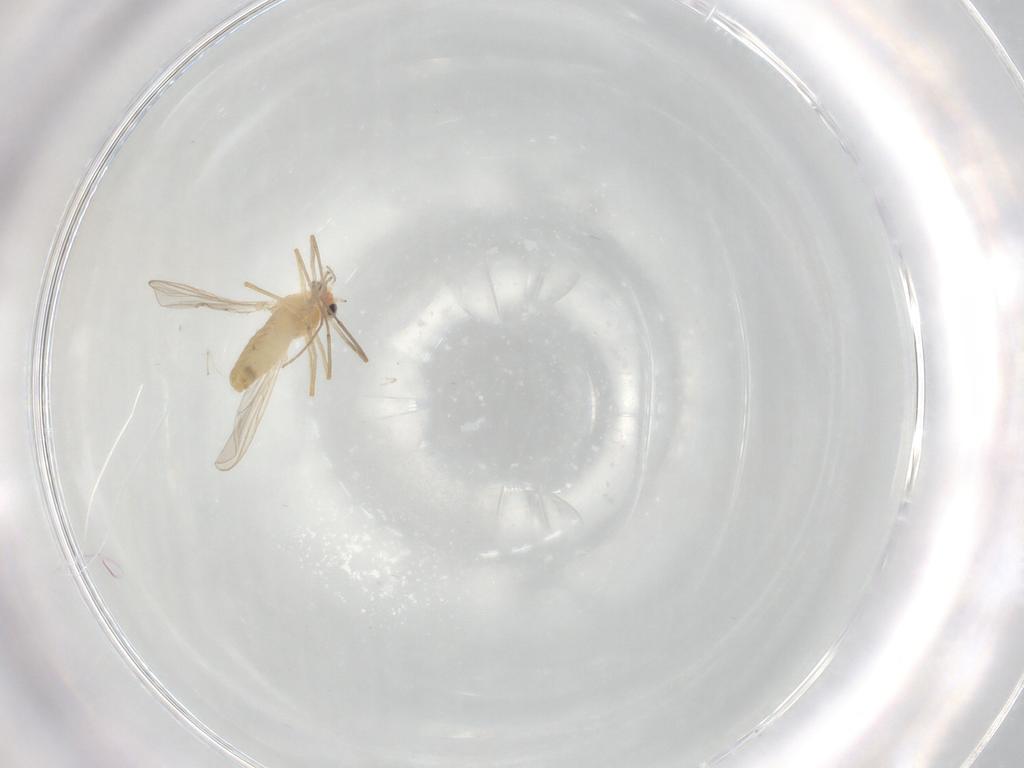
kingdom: Animalia
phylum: Arthropoda
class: Insecta
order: Diptera
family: Chironomidae
